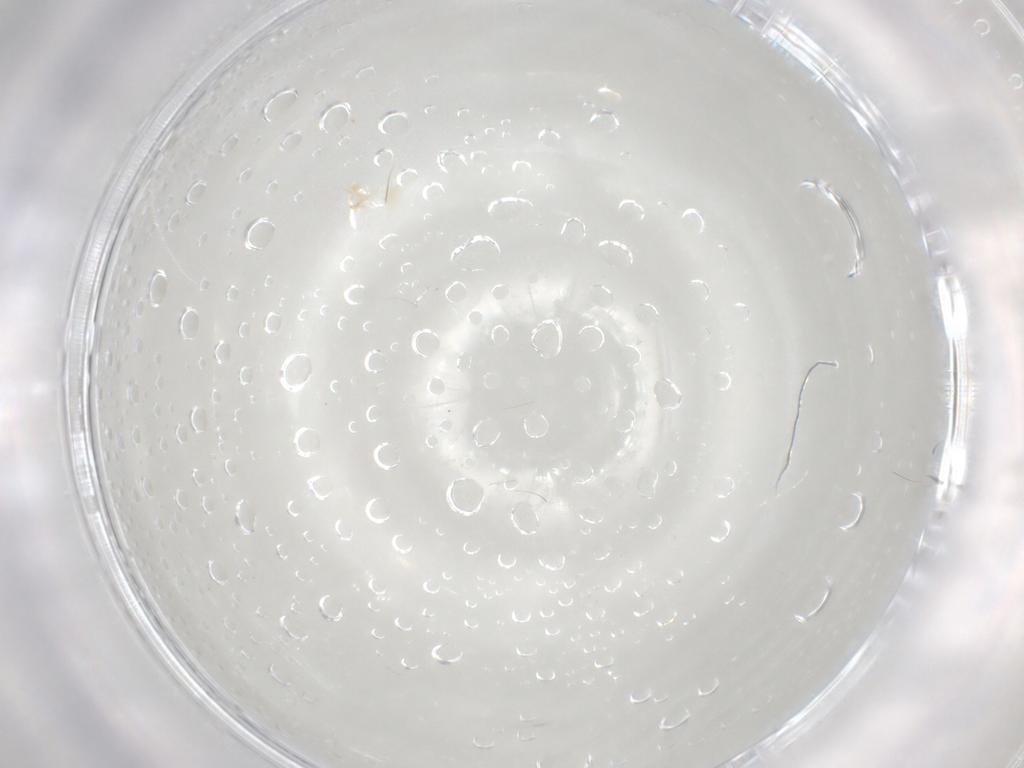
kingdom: Animalia
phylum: Arthropoda
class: Arachnida
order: Trombidiformes
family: Eupodidae
